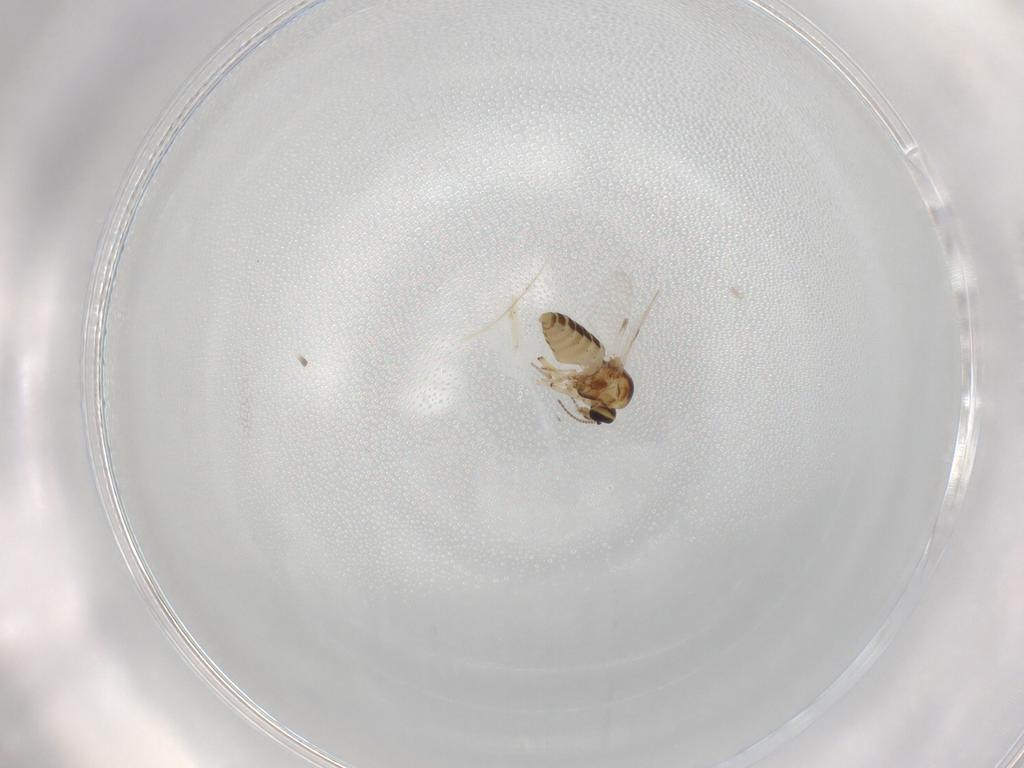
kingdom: Animalia
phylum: Arthropoda
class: Insecta
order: Diptera
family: Ceratopogonidae
